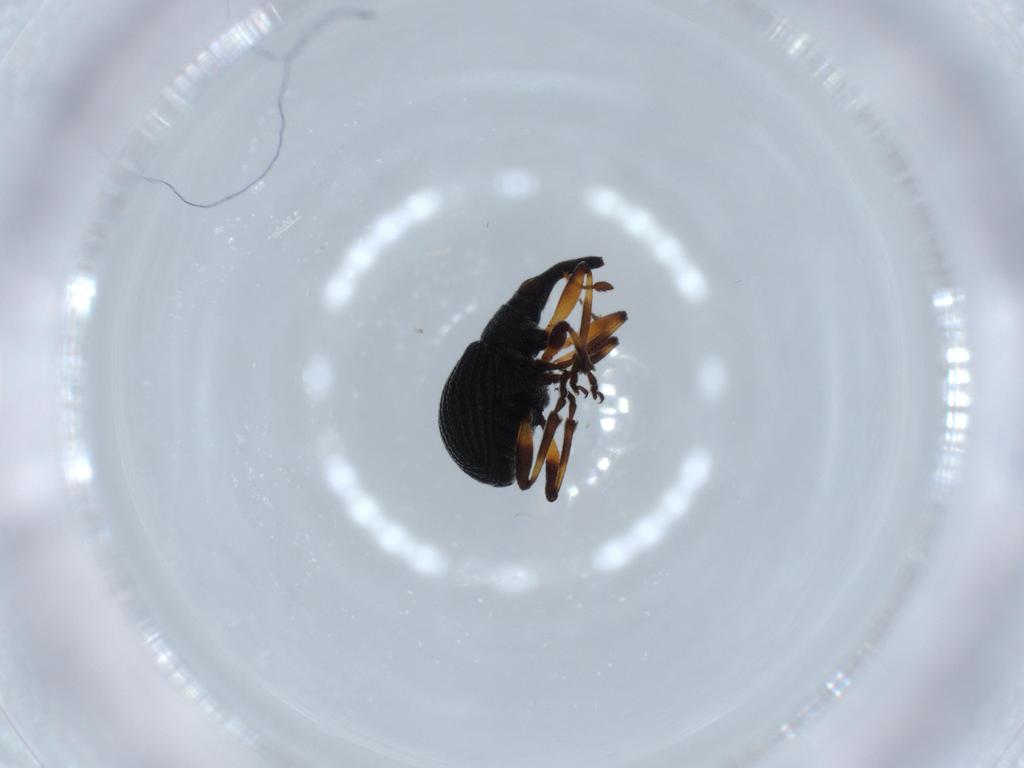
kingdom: Animalia
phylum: Arthropoda
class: Insecta
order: Coleoptera
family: Brentidae
